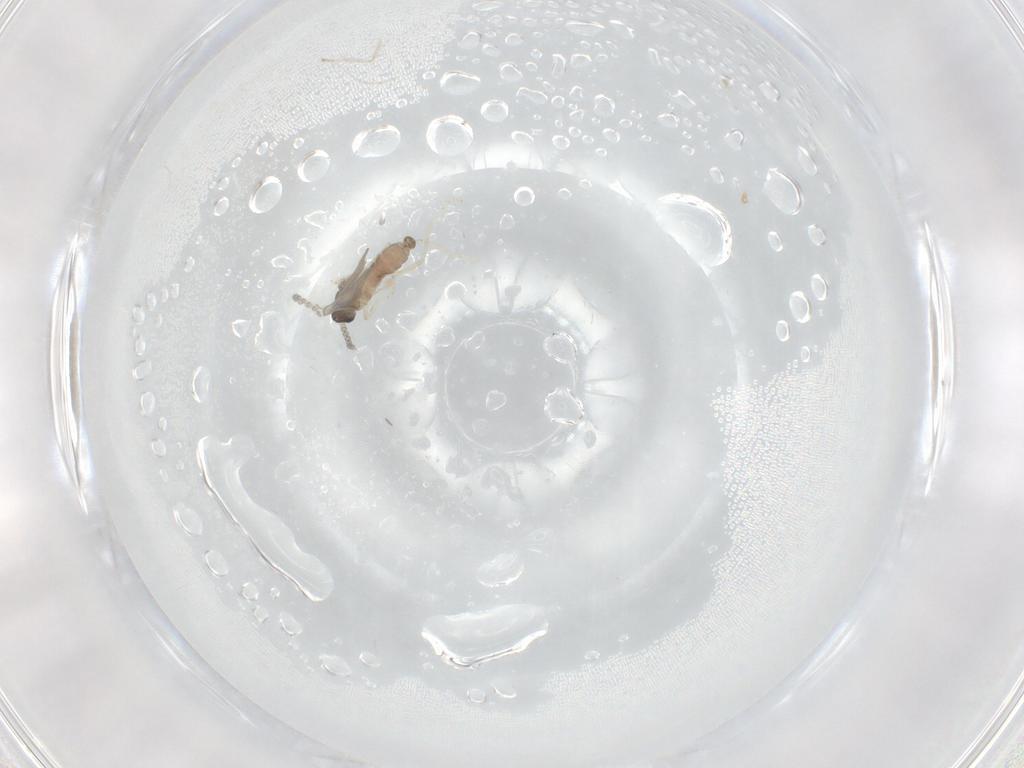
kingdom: Animalia
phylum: Arthropoda
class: Insecta
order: Diptera
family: Cecidomyiidae
